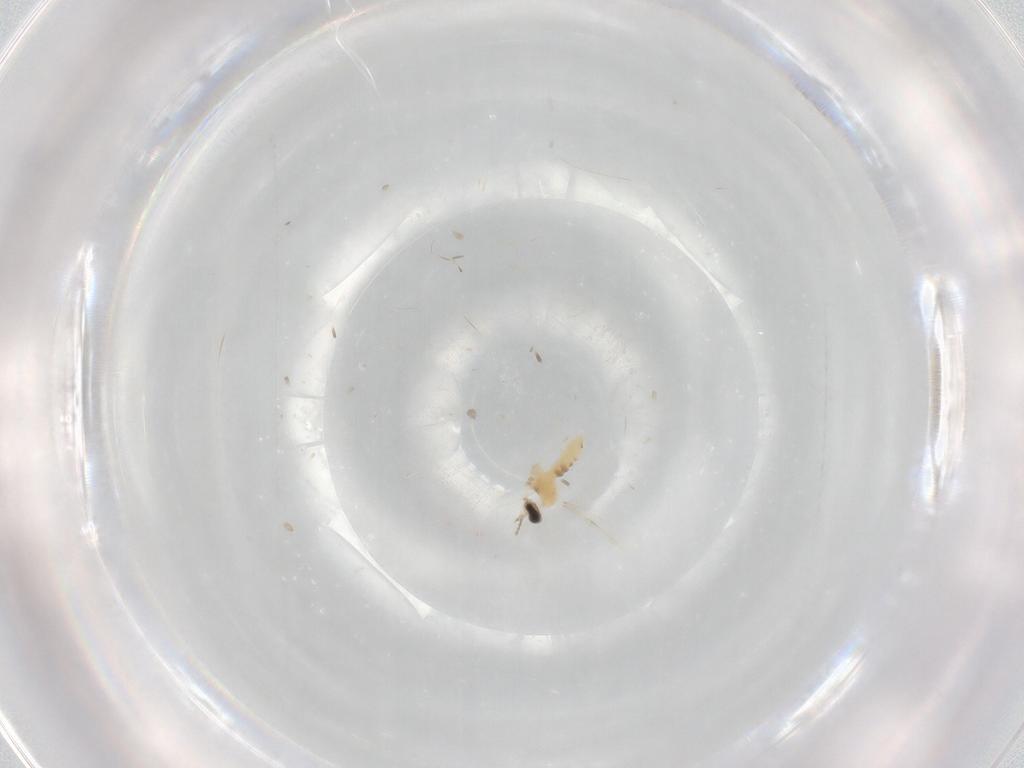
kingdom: Animalia
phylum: Arthropoda
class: Insecta
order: Diptera
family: Cecidomyiidae
